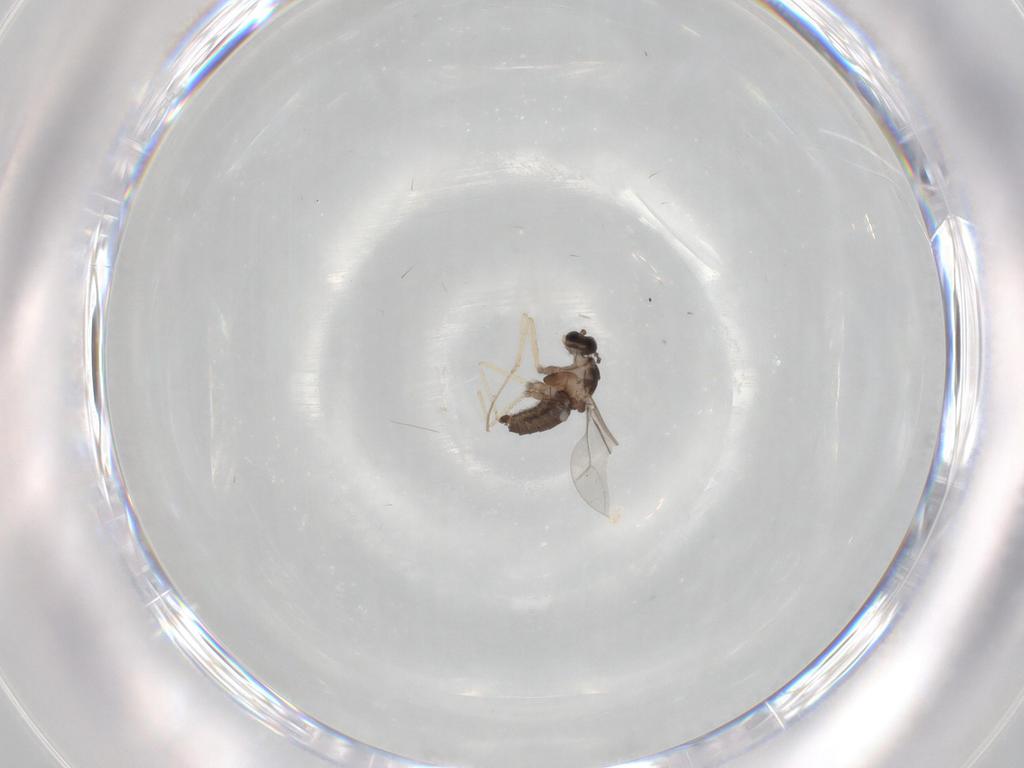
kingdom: Animalia
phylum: Arthropoda
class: Insecta
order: Diptera
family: Cecidomyiidae
